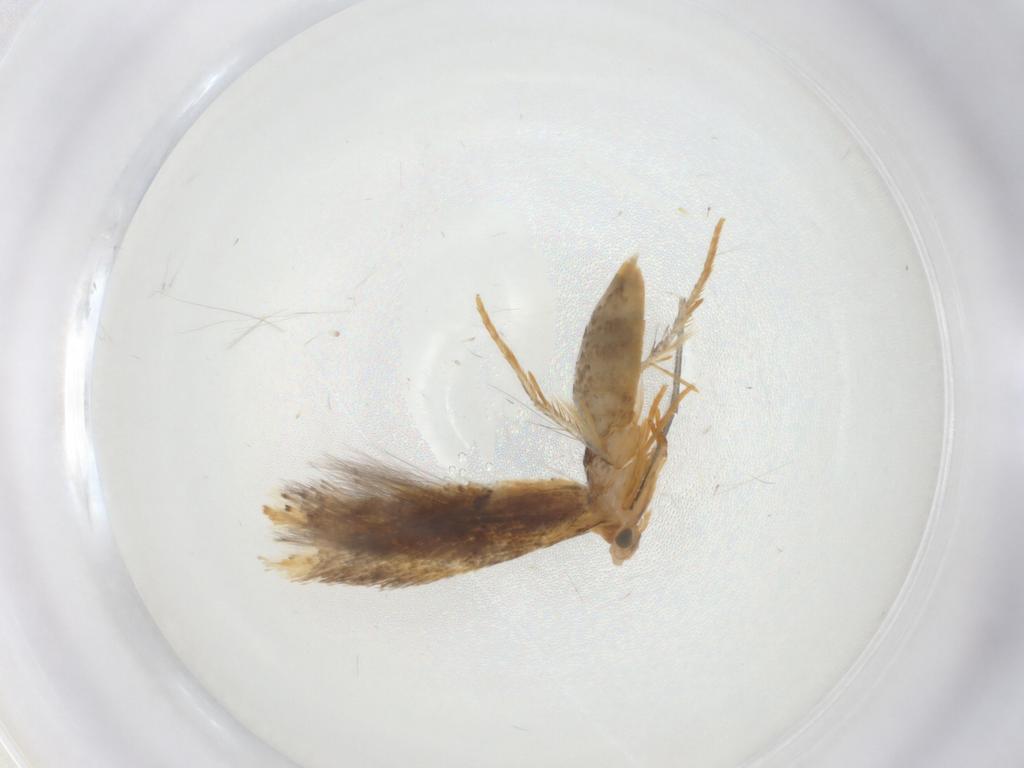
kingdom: Animalia
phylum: Arthropoda
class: Insecta
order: Lepidoptera
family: Tineidae
